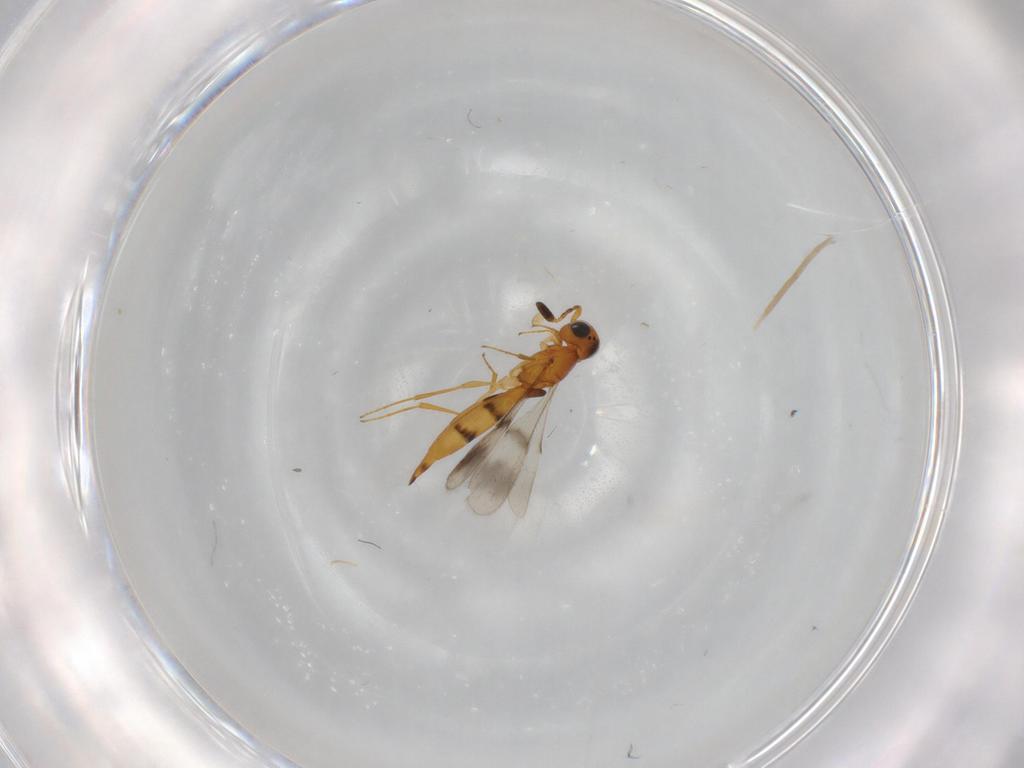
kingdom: Animalia
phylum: Arthropoda
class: Insecta
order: Hymenoptera
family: Scelionidae
